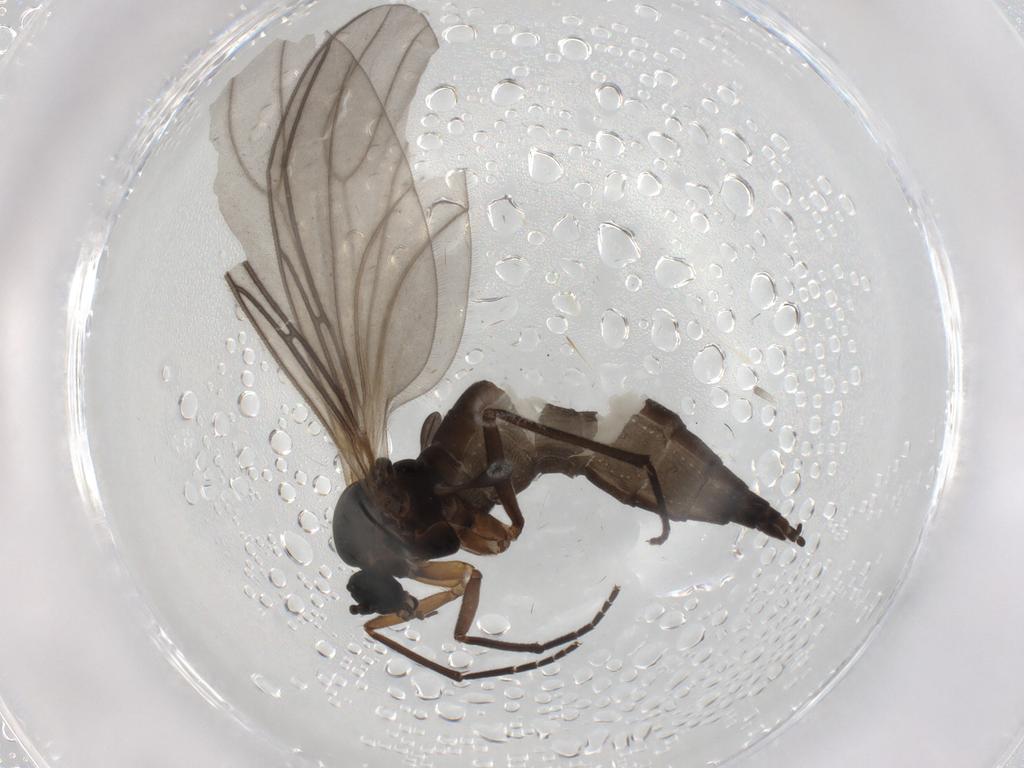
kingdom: Animalia
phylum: Arthropoda
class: Insecta
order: Diptera
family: Sciaridae
